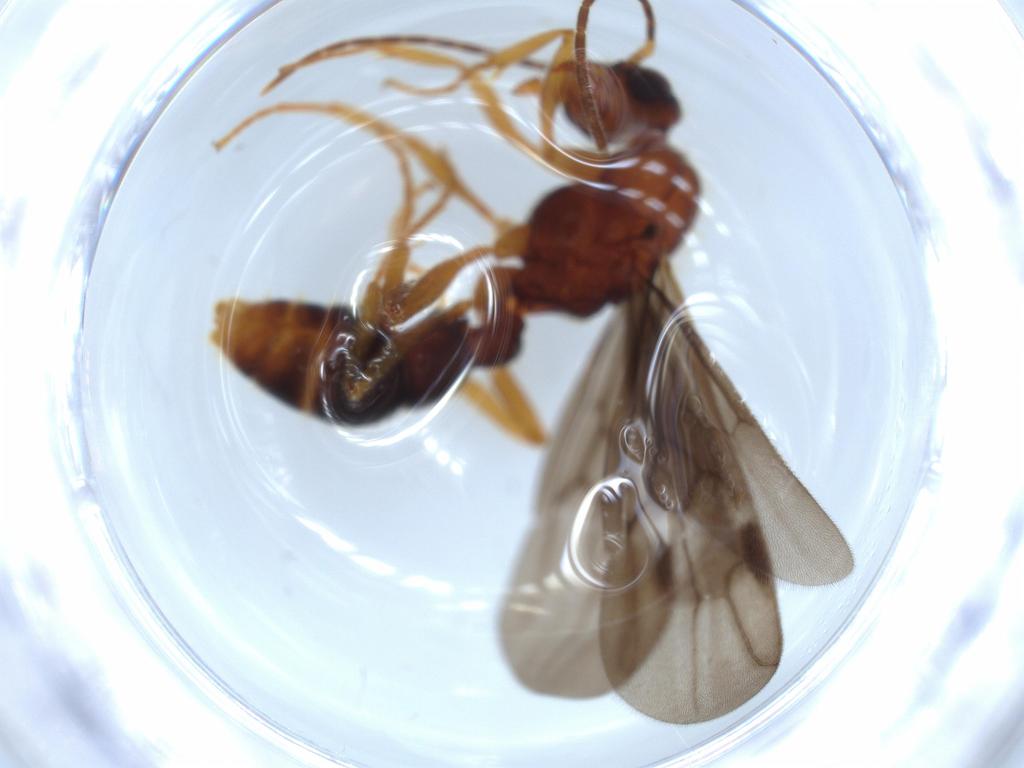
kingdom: Animalia
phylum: Arthropoda
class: Insecta
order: Hymenoptera
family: Formicidae
